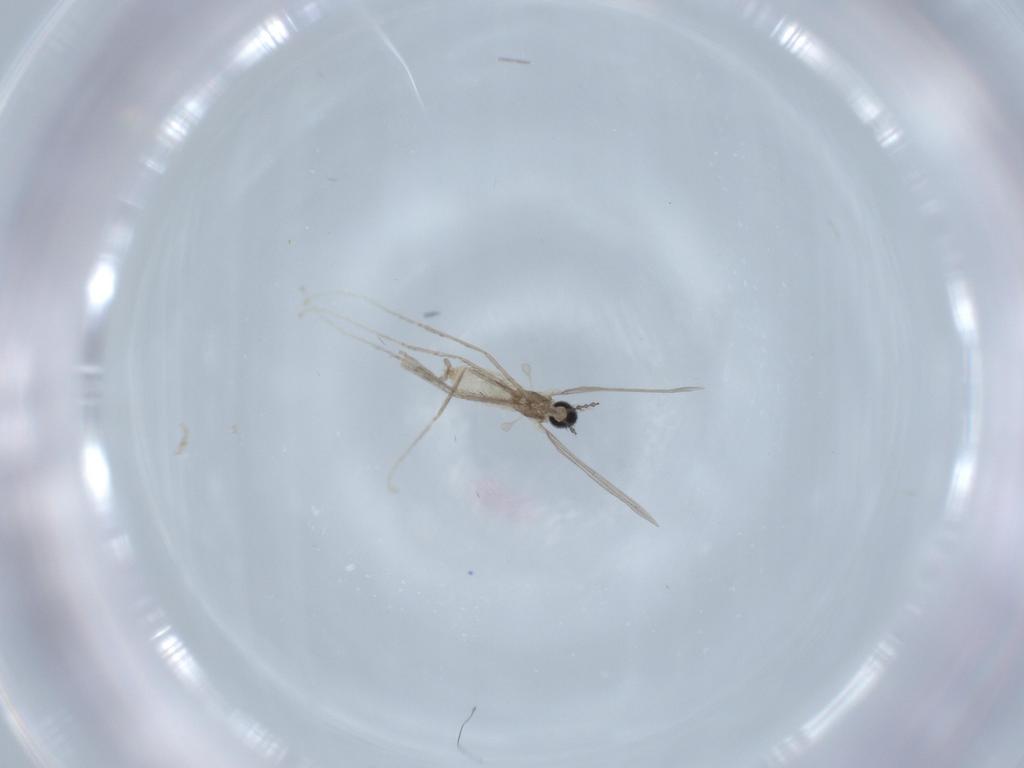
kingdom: Animalia
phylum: Arthropoda
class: Insecta
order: Diptera
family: Cecidomyiidae
